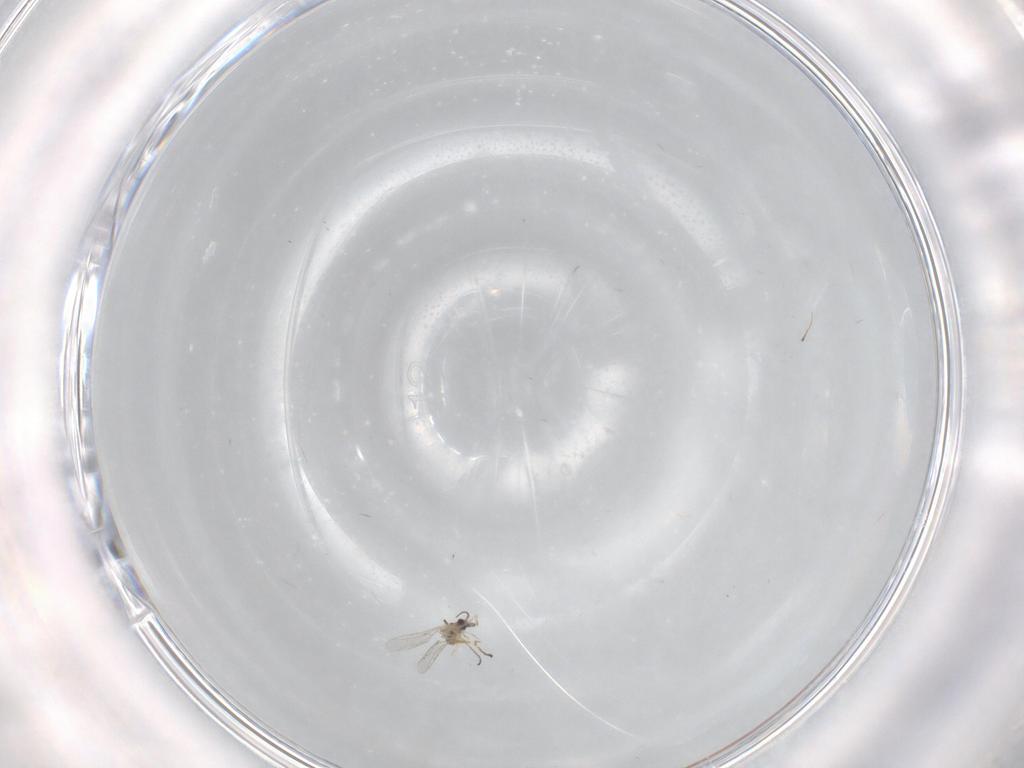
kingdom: Animalia
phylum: Arthropoda
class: Insecta
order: Diptera
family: Cecidomyiidae
